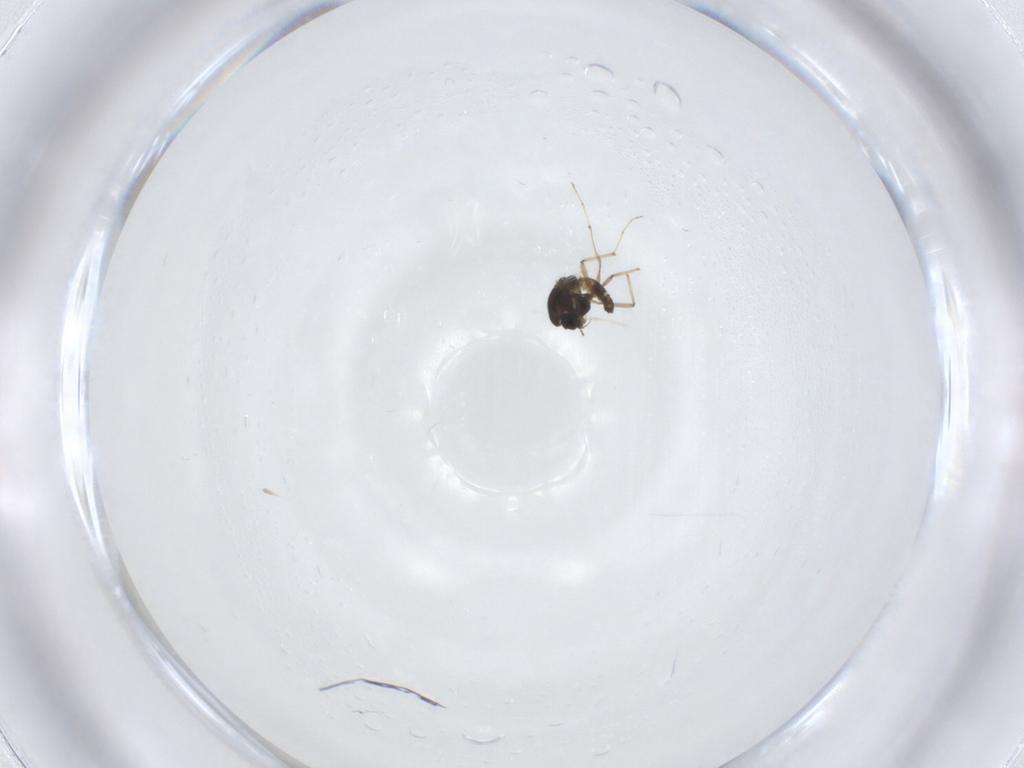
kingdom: Animalia
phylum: Arthropoda
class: Insecta
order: Diptera
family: Chironomidae
